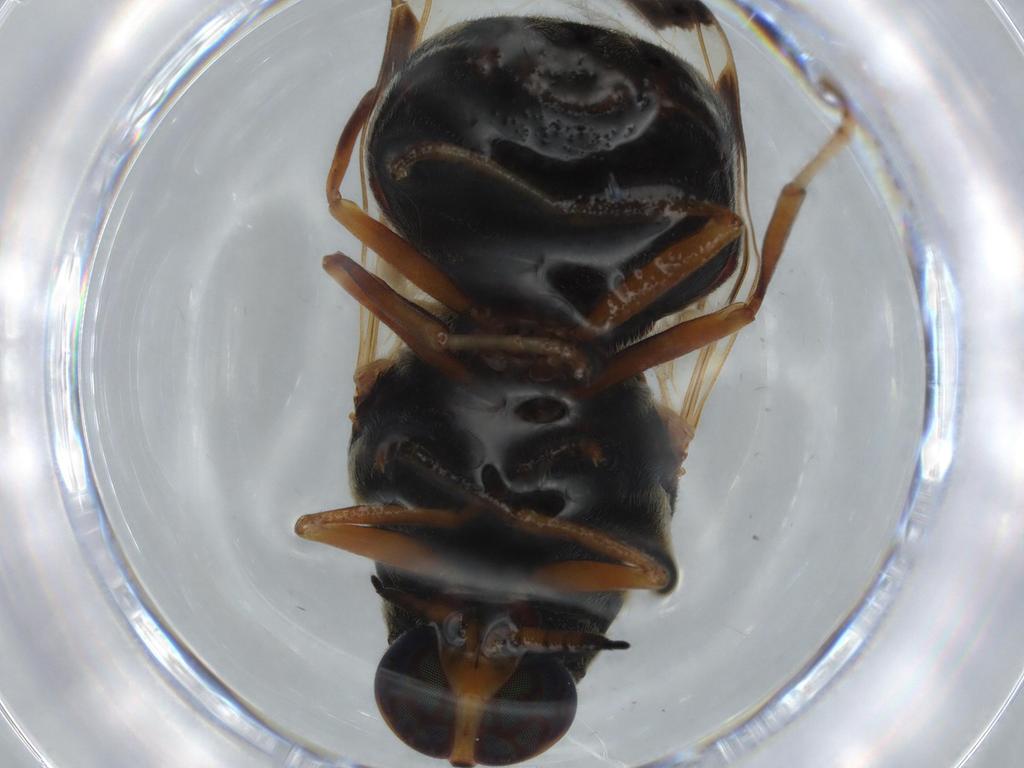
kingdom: Animalia
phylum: Arthropoda
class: Insecta
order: Diptera
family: Stratiomyidae
